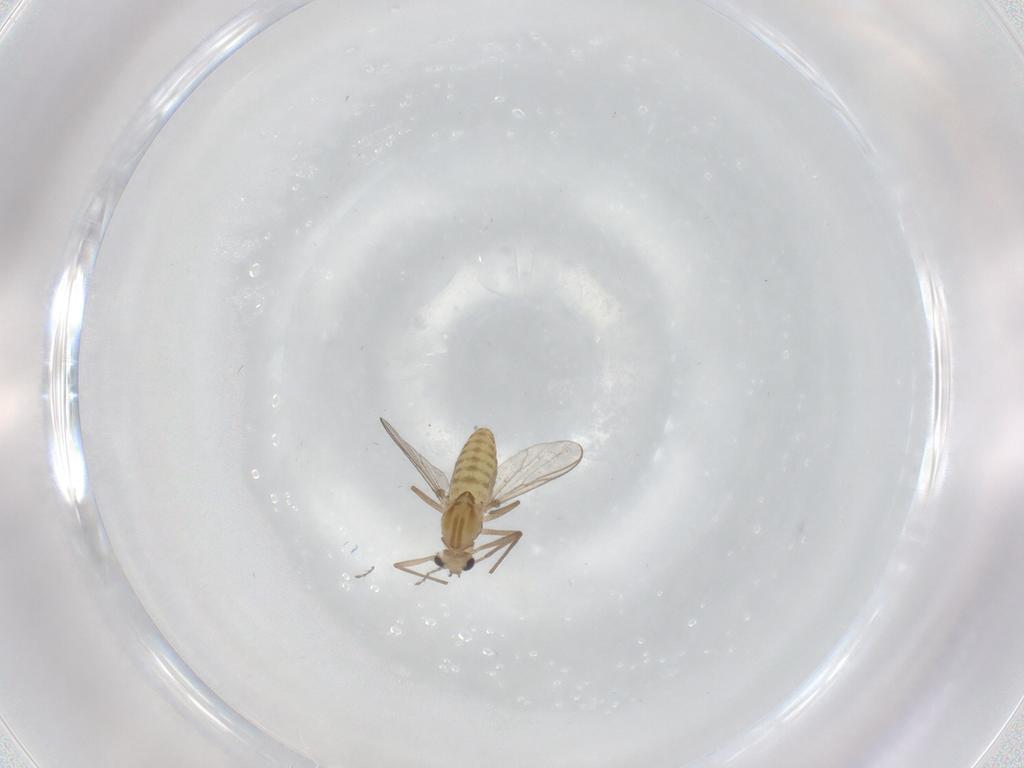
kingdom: Animalia
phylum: Arthropoda
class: Insecta
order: Diptera
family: Chironomidae
